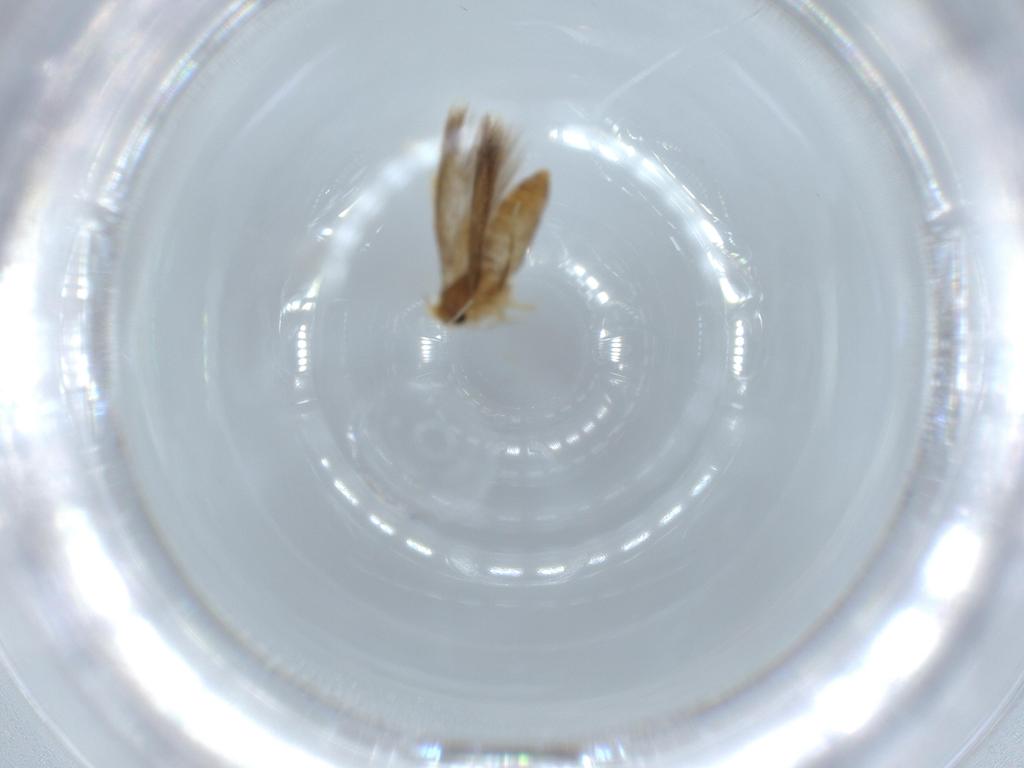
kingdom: Animalia
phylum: Arthropoda
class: Insecta
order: Lepidoptera
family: Nepticulidae
